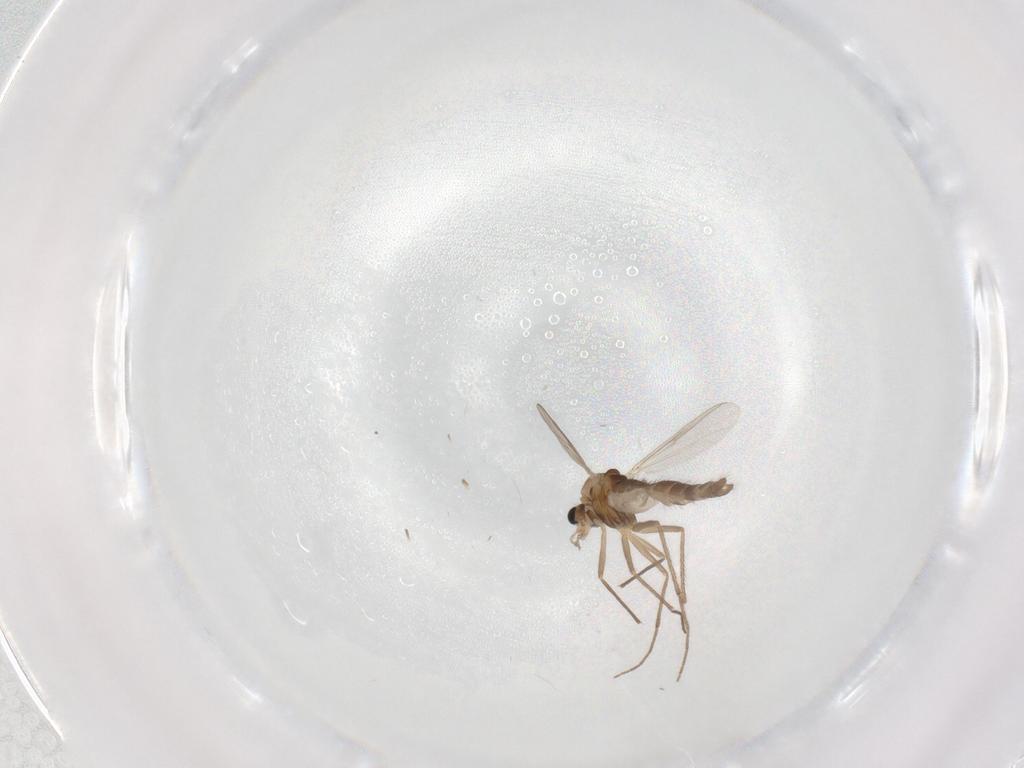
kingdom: Animalia
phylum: Arthropoda
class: Insecta
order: Diptera
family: Chironomidae
